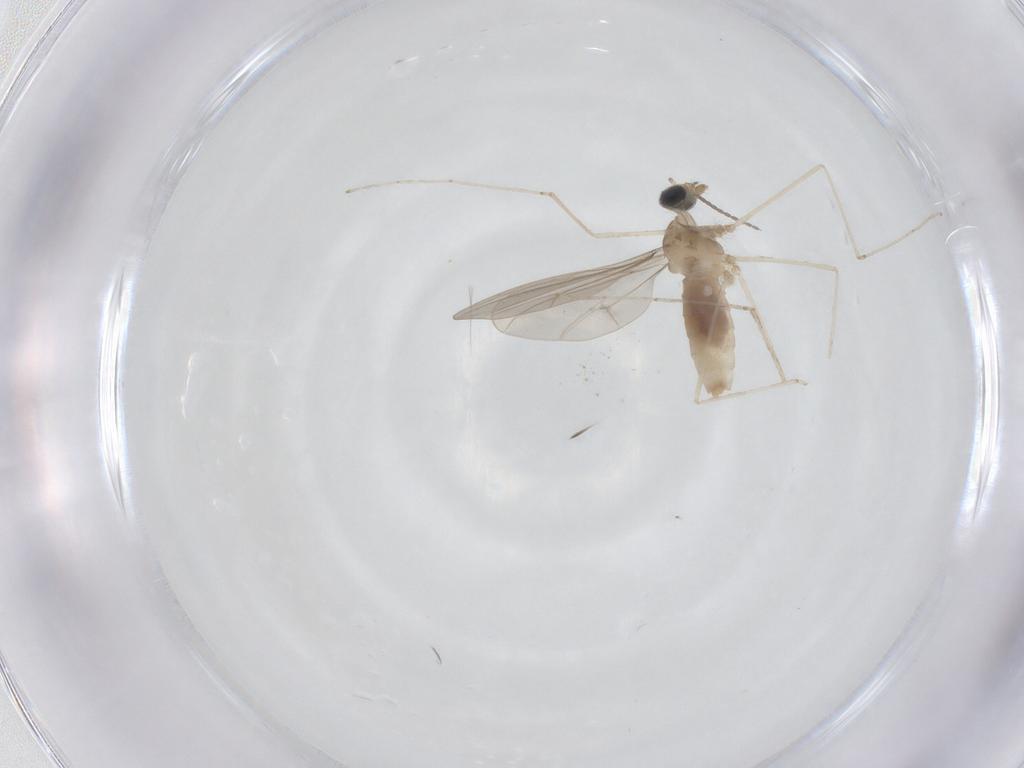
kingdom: Animalia
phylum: Arthropoda
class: Insecta
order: Diptera
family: Cecidomyiidae
